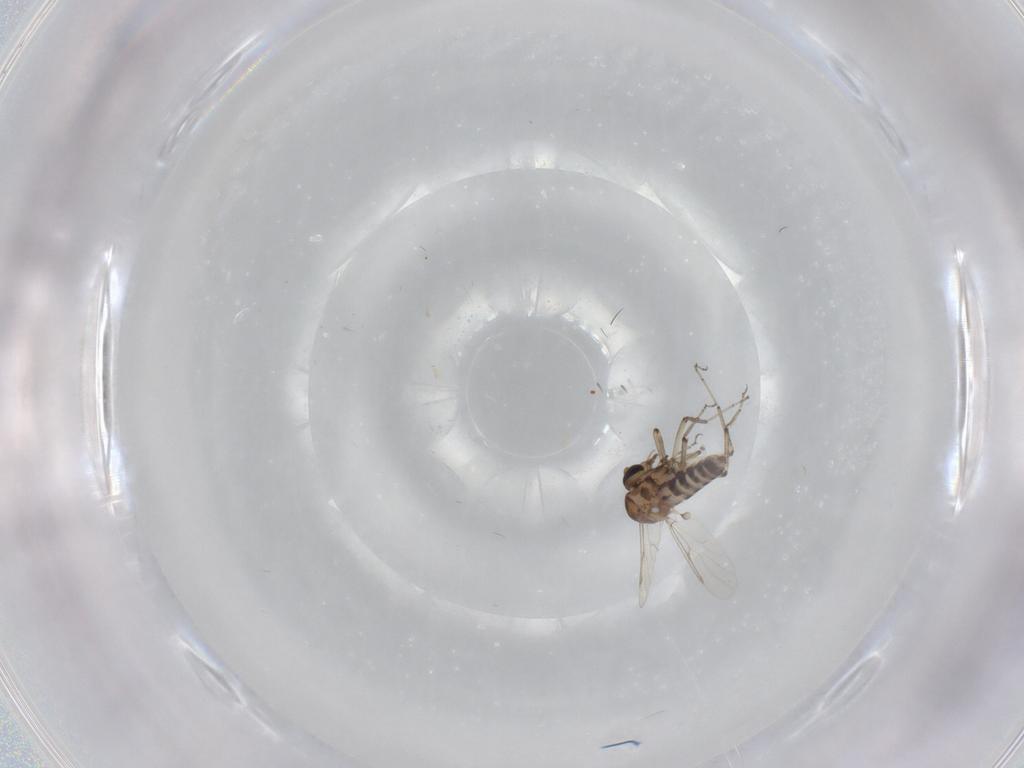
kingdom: Animalia
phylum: Arthropoda
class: Insecta
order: Diptera
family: Ceratopogonidae
